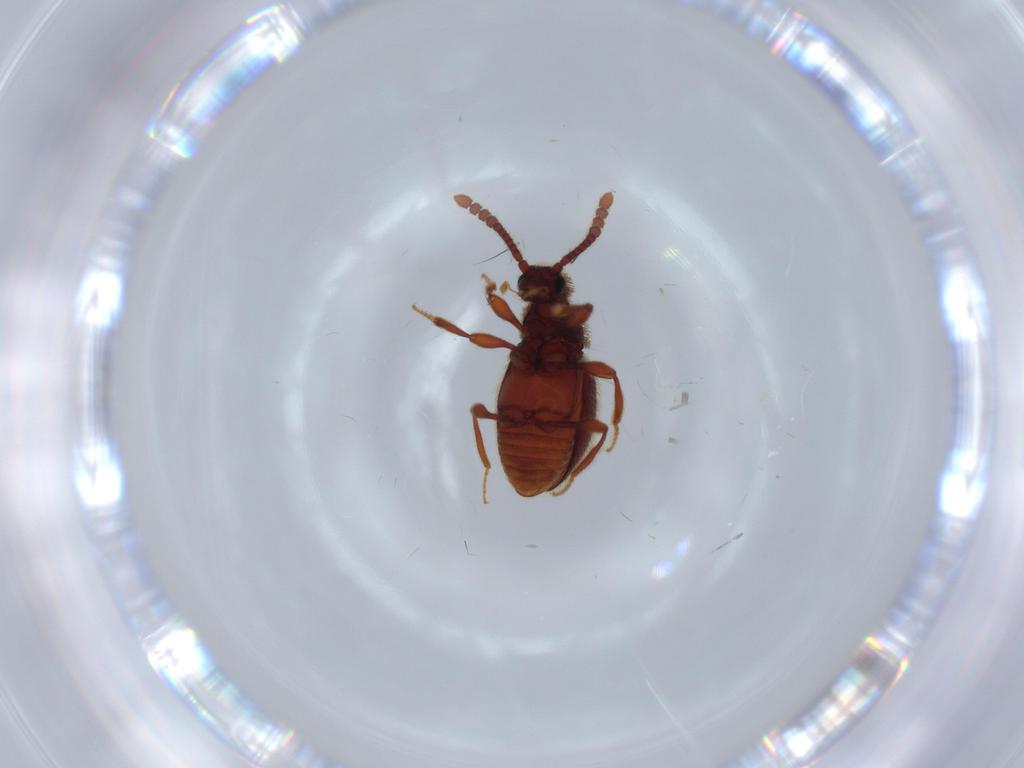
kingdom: Animalia
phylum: Arthropoda
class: Insecta
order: Coleoptera
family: Staphylinidae
